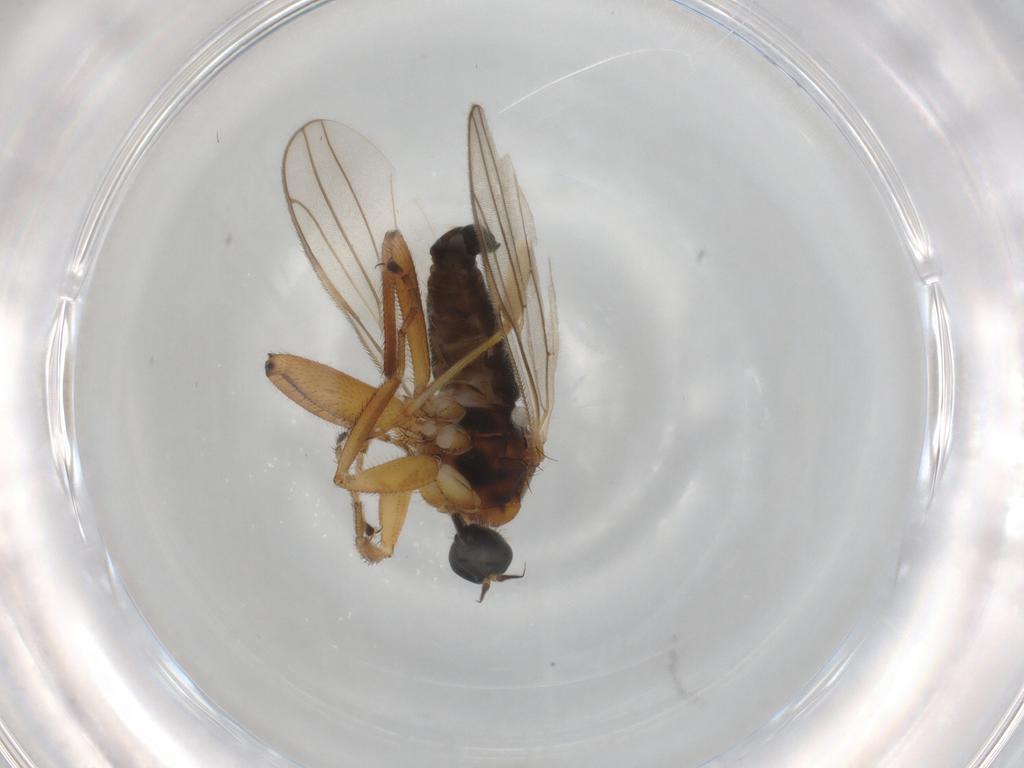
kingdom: Animalia
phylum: Arthropoda
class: Insecta
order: Diptera
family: Hybotidae
